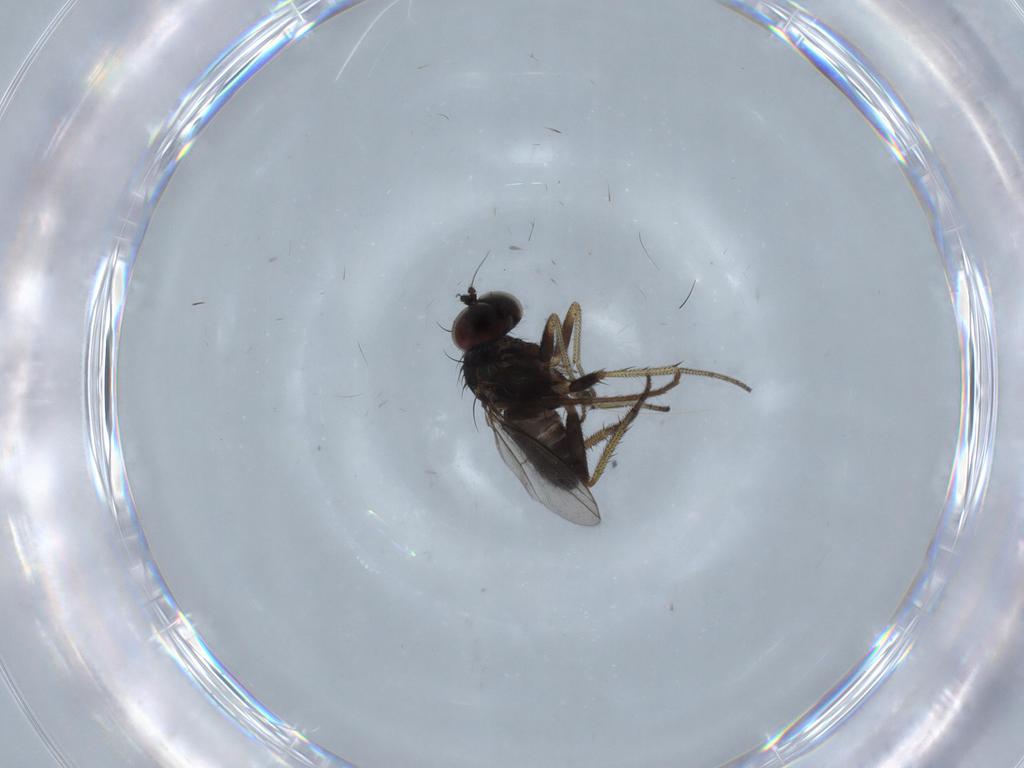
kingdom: Animalia
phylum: Arthropoda
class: Insecta
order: Diptera
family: Dolichopodidae
